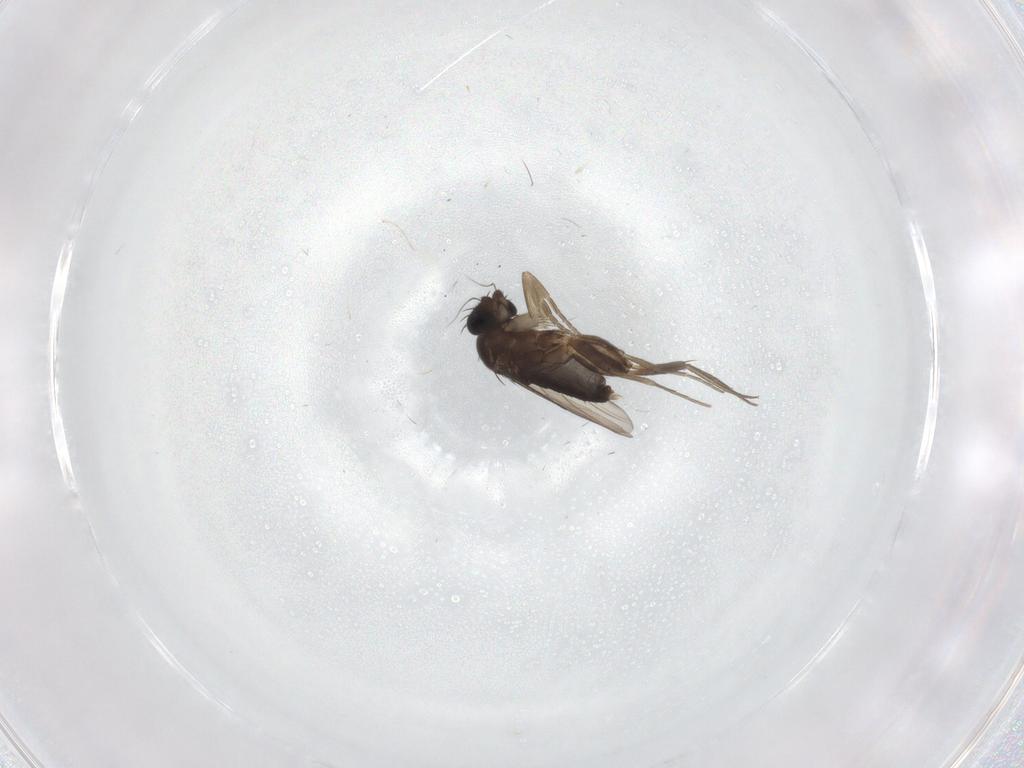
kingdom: Animalia
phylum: Arthropoda
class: Insecta
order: Diptera
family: Phoridae
